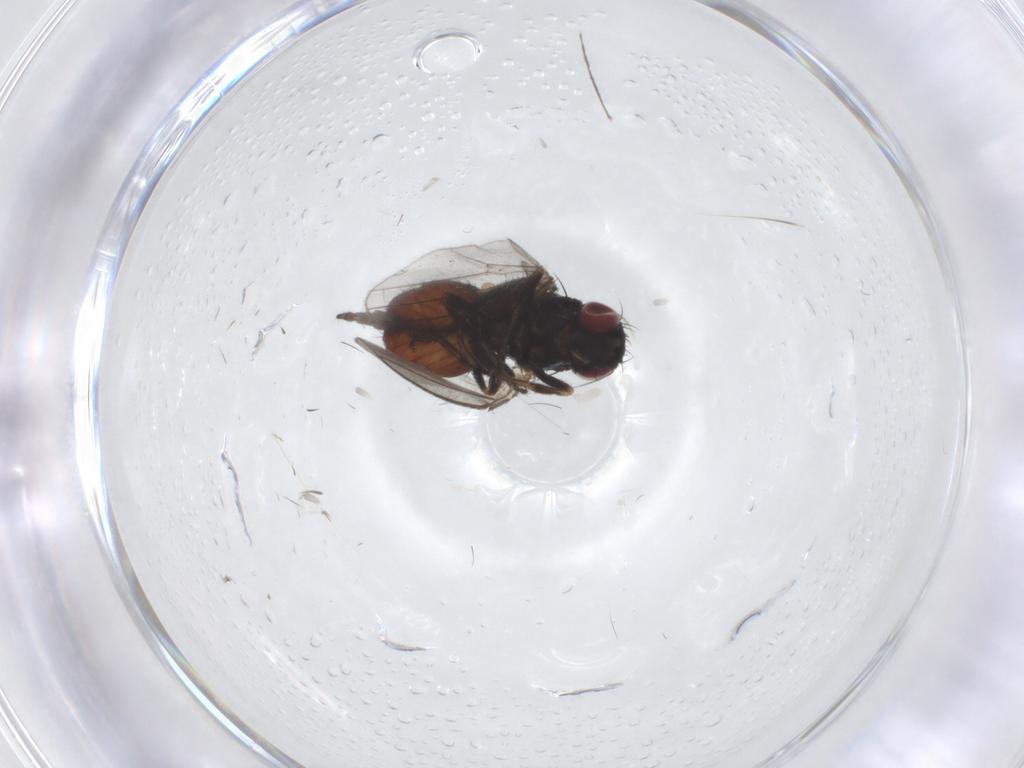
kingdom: Animalia
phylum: Arthropoda
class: Insecta
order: Diptera
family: Milichiidae
